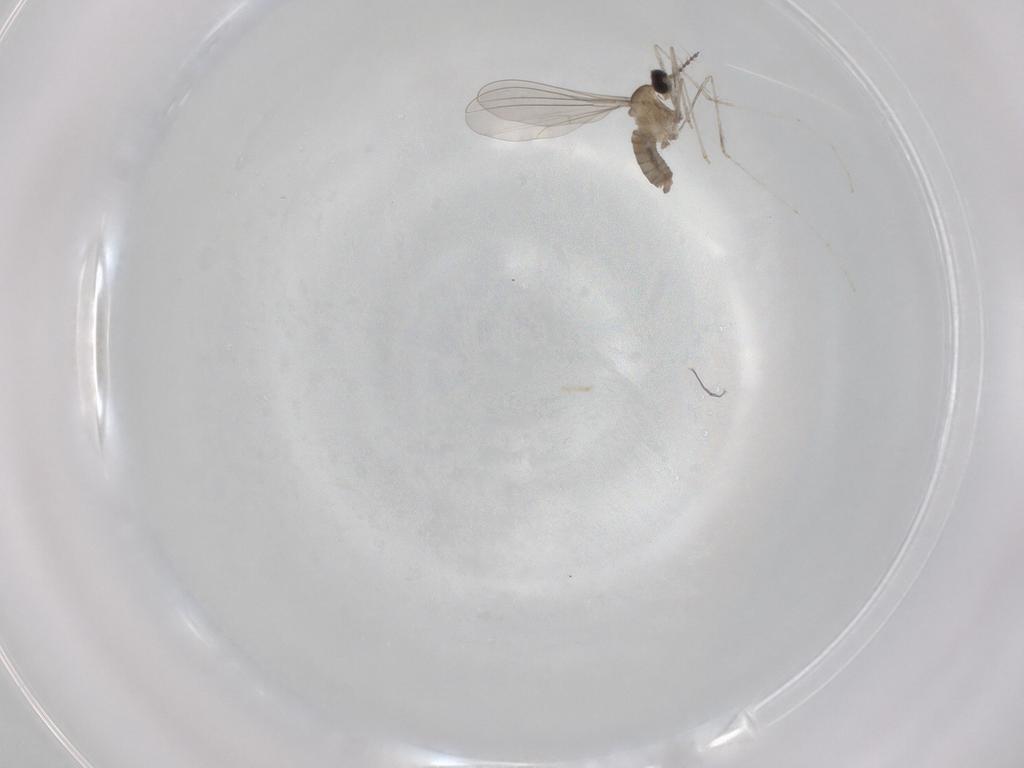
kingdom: Animalia
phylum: Arthropoda
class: Insecta
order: Diptera
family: Cecidomyiidae
